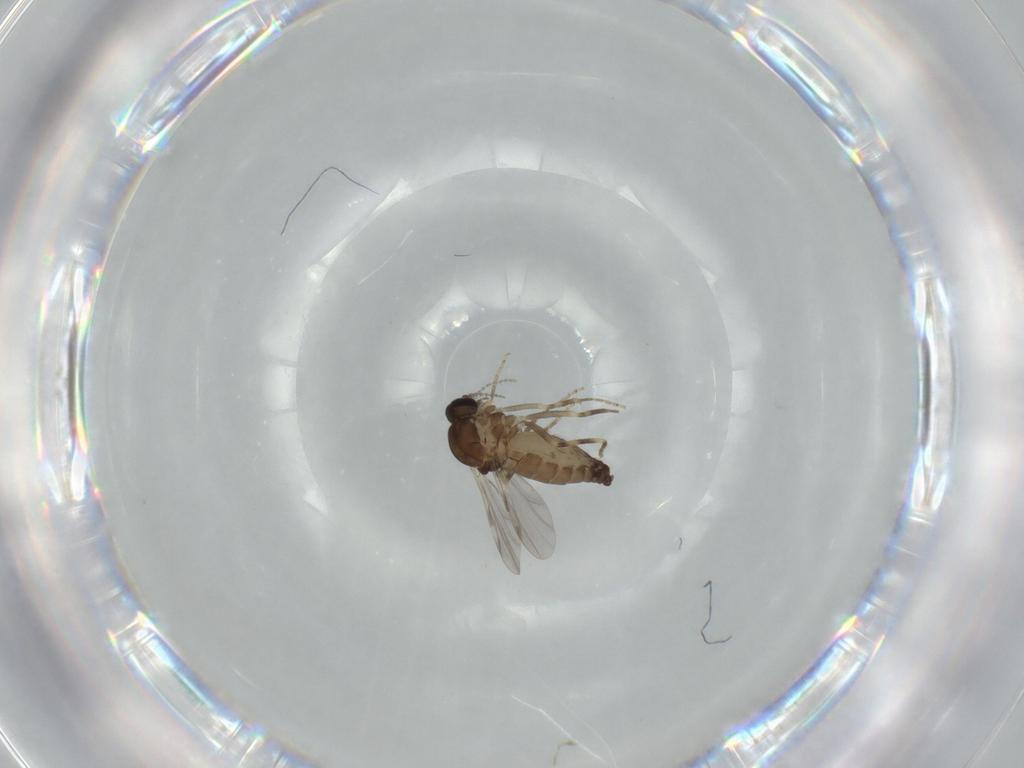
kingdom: Animalia
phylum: Arthropoda
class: Insecta
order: Diptera
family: Ceratopogonidae
